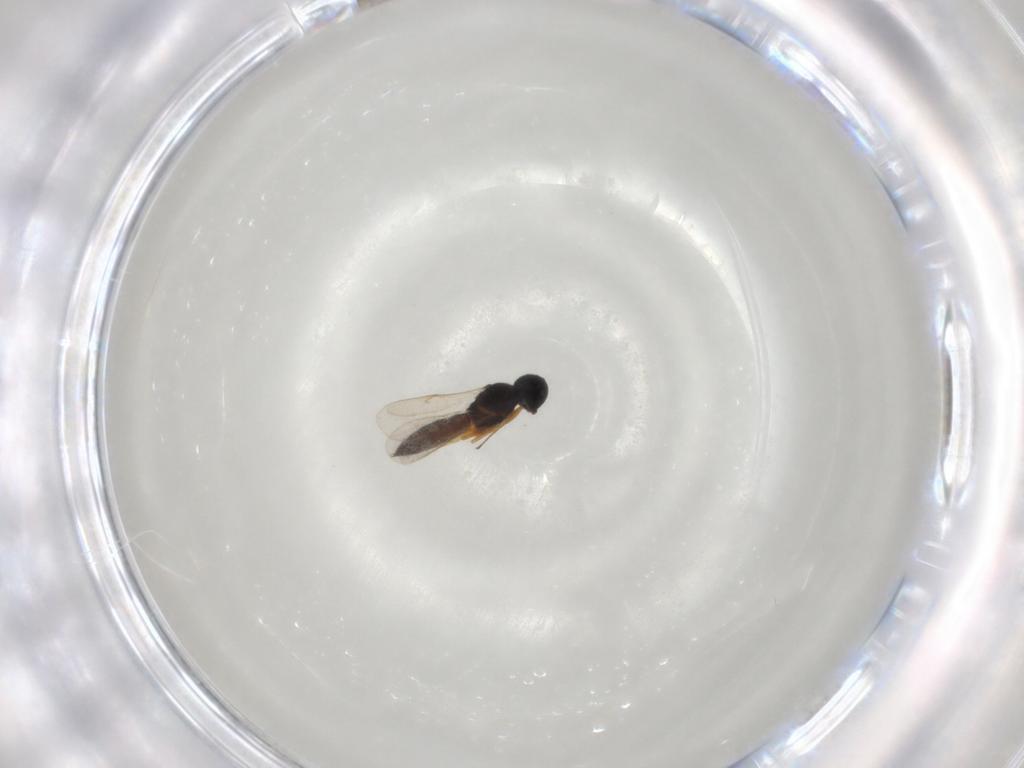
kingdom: Animalia
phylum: Arthropoda
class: Insecta
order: Hymenoptera
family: Scelionidae
